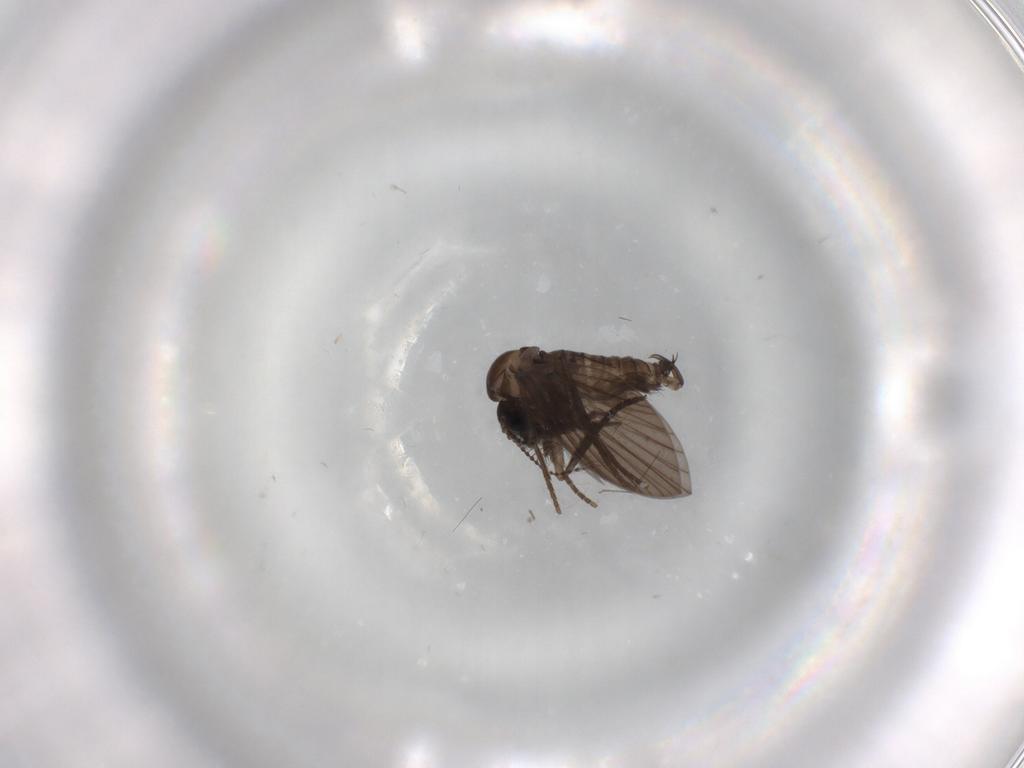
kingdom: Animalia
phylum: Arthropoda
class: Insecta
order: Diptera
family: Psychodidae
